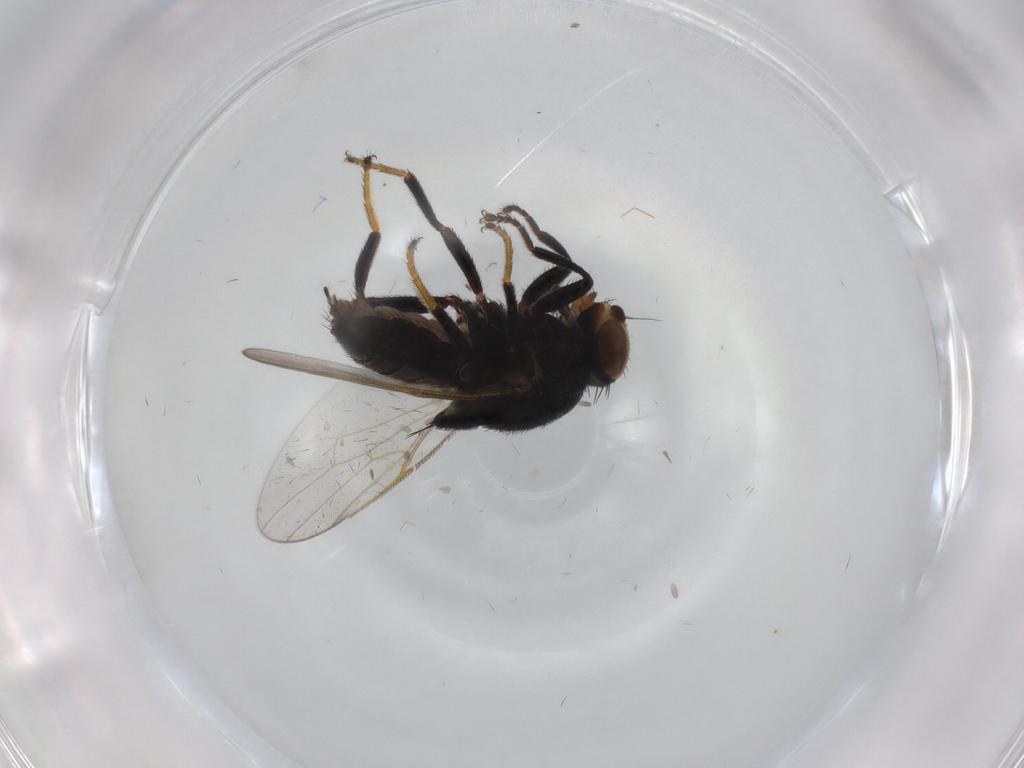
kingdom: Animalia
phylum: Arthropoda
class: Insecta
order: Diptera
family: Chloropidae
